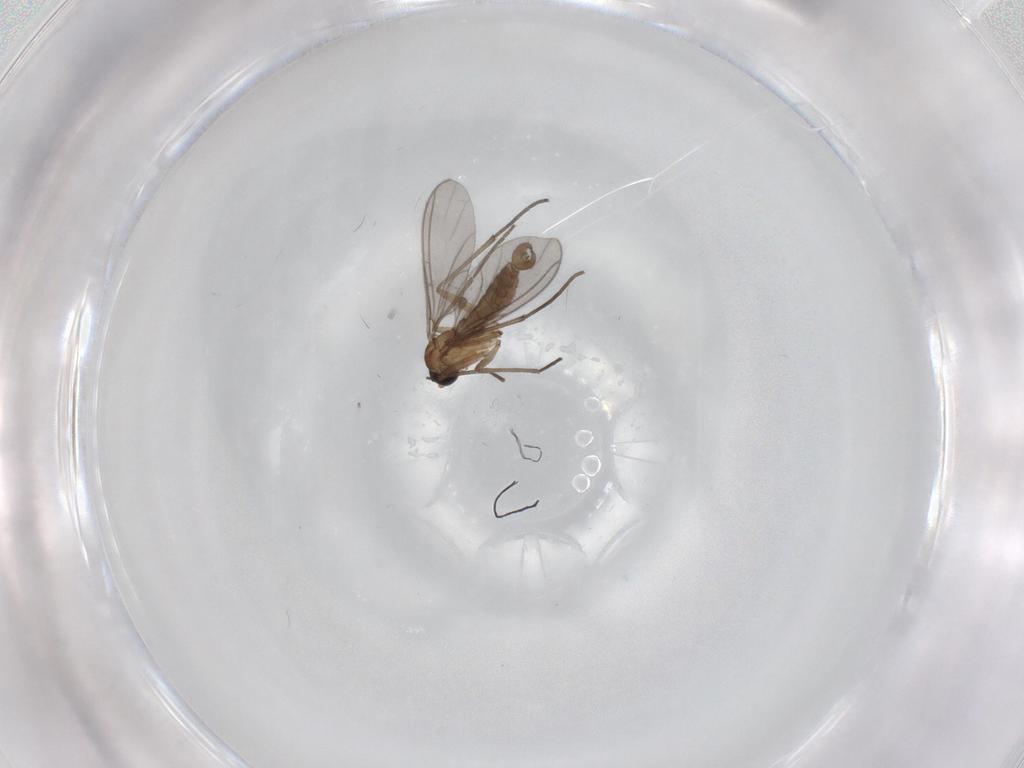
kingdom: Animalia
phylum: Arthropoda
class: Insecta
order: Diptera
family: Sciaridae
